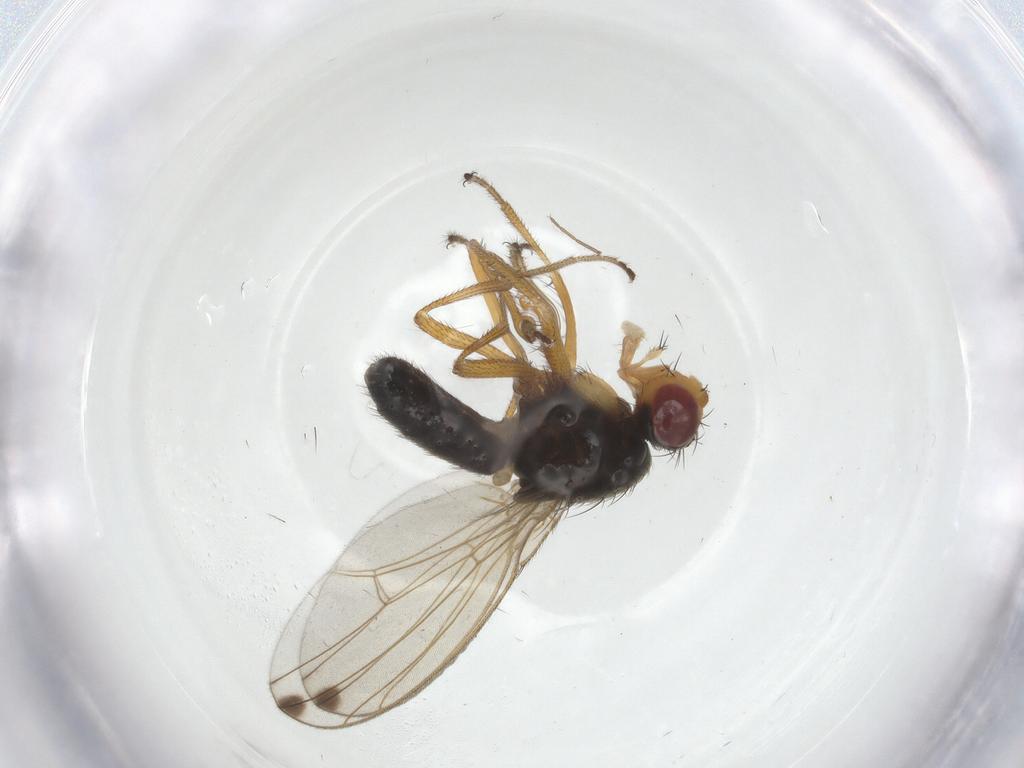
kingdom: Animalia
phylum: Arthropoda
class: Insecta
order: Diptera
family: Drosophilidae
